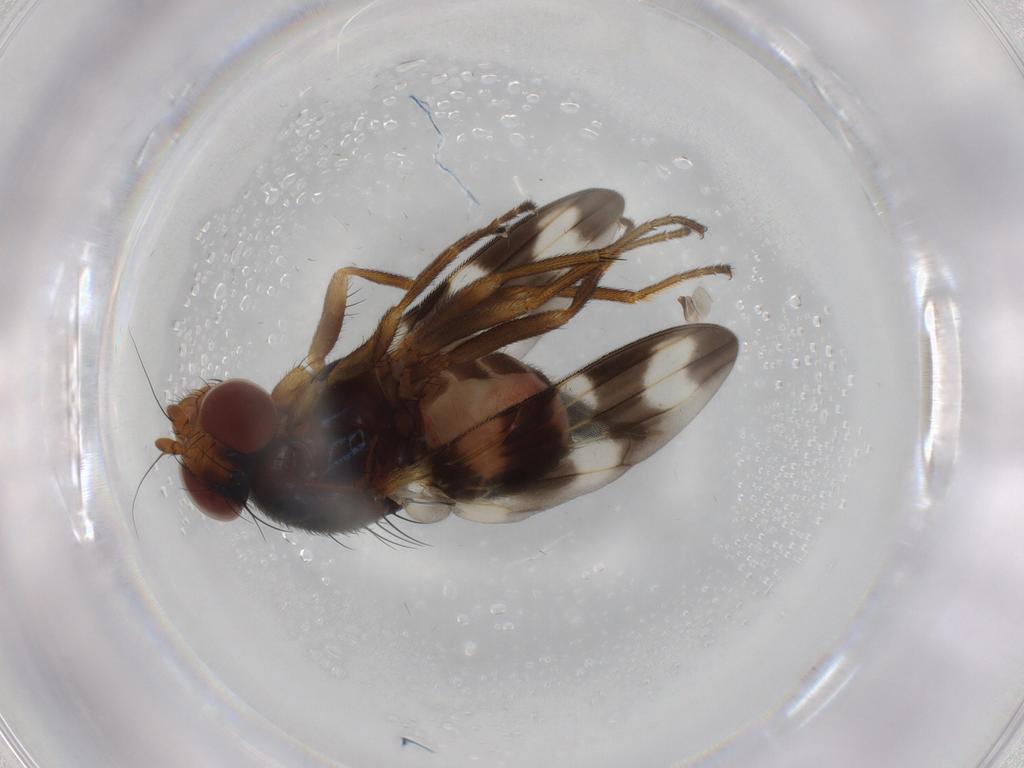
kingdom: Animalia
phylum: Arthropoda
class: Insecta
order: Diptera
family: Ulidiidae
